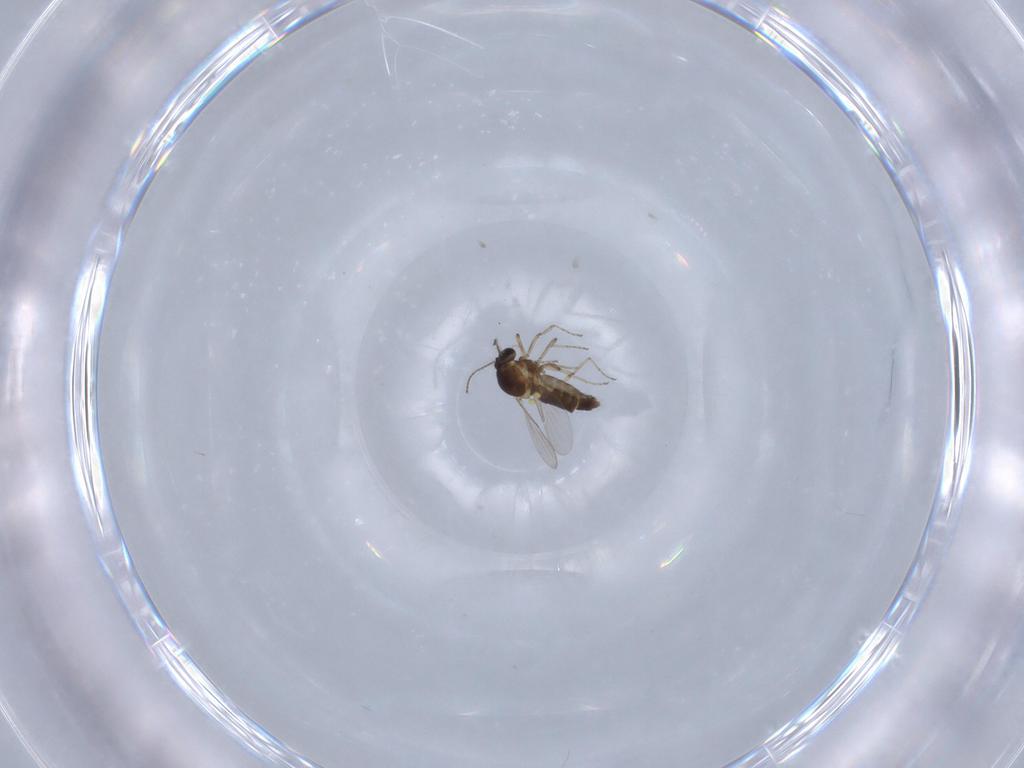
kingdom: Animalia
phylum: Arthropoda
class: Insecta
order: Diptera
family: Ceratopogonidae
